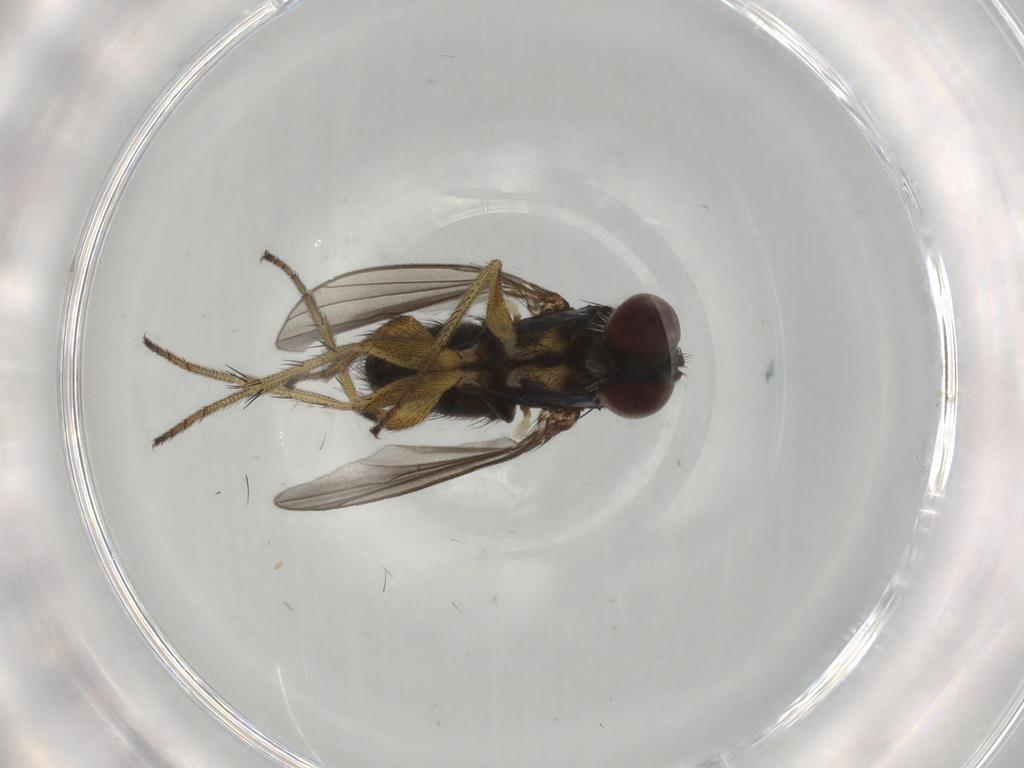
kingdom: Animalia
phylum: Arthropoda
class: Insecta
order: Diptera
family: Dolichopodidae
